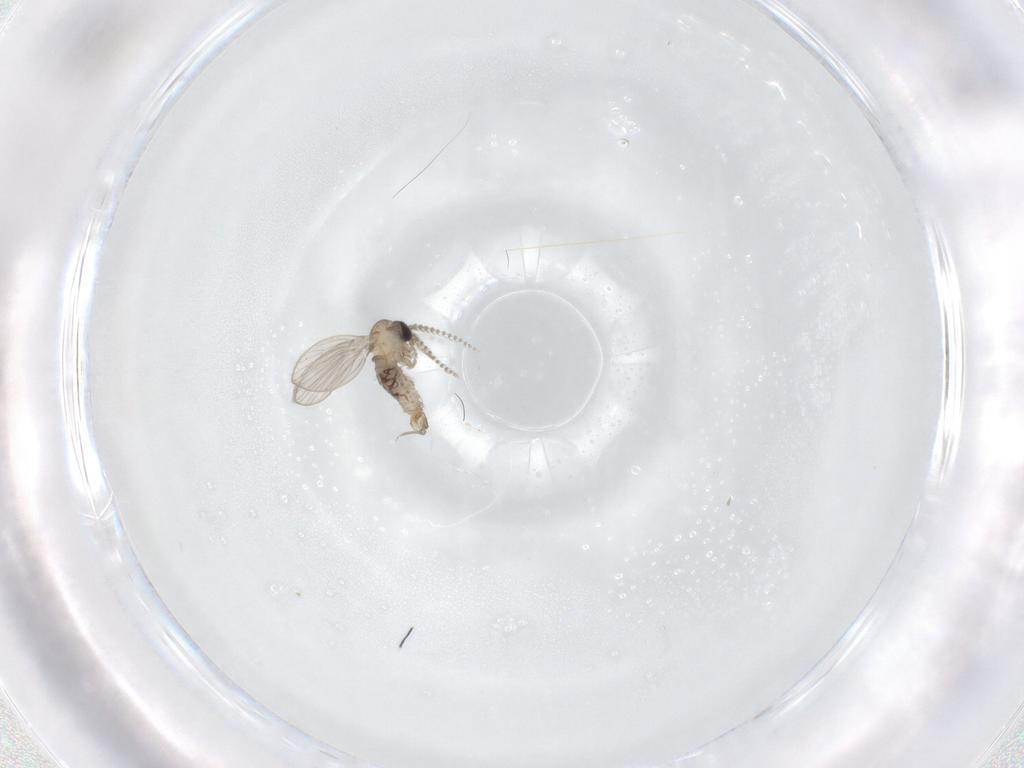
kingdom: Animalia
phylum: Arthropoda
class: Insecta
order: Diptera
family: Psychodidae
